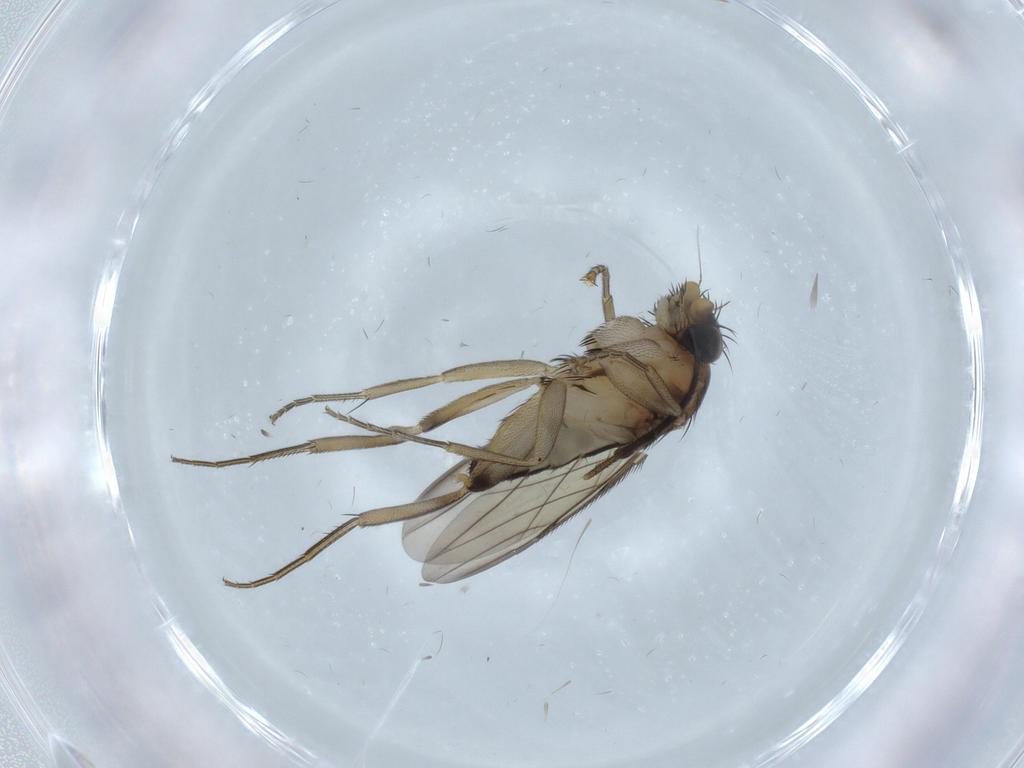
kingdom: Animalia
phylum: Arthropoda
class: Insecta
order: Diptera
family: Phoridae
